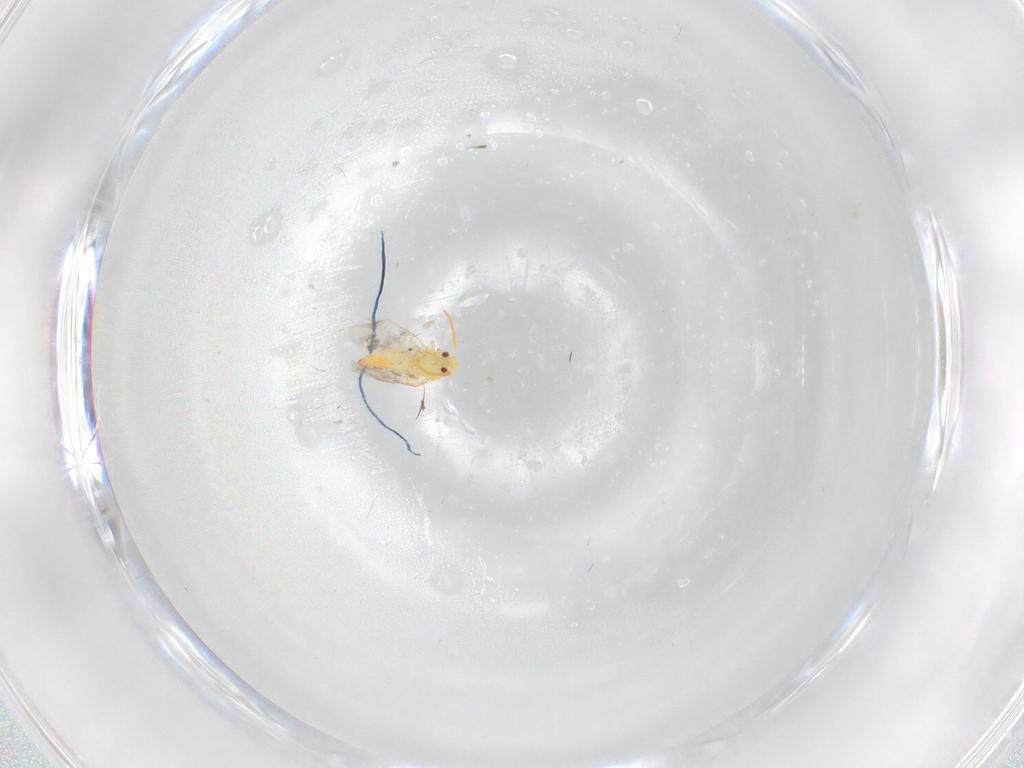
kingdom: Animalia
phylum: Arthropoda
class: Insecta
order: Hemiptera
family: Aleyrodidae
